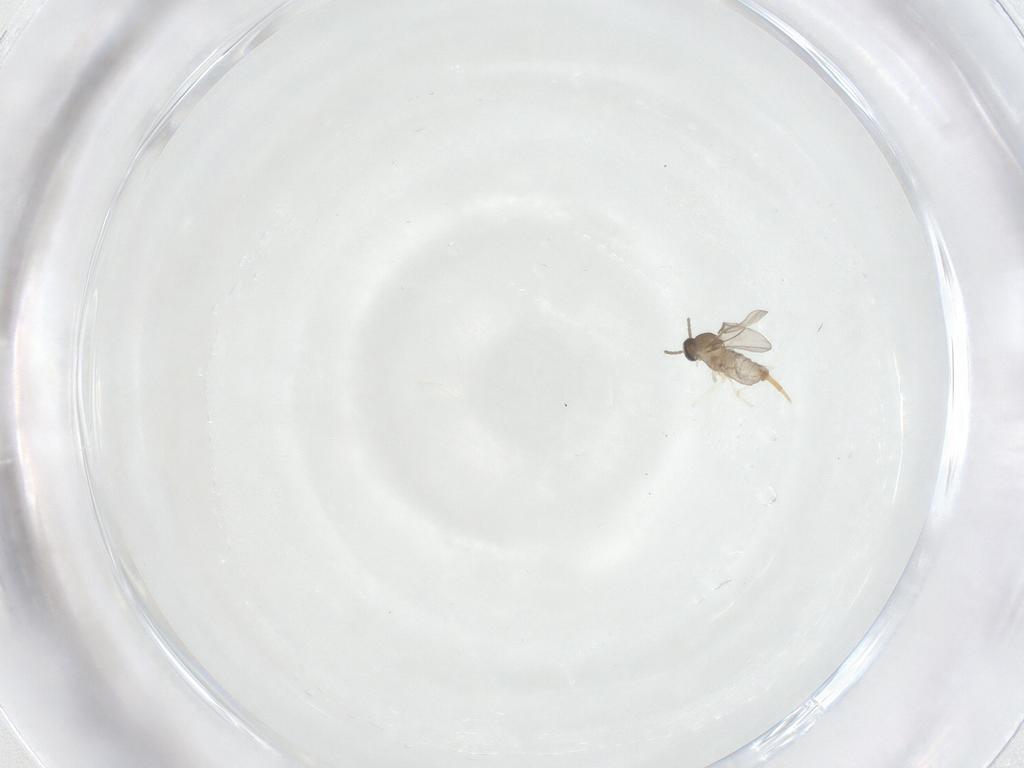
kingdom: Animalia
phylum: Arthropoda
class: Insecta
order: Diptera
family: Cecidomyiidae
